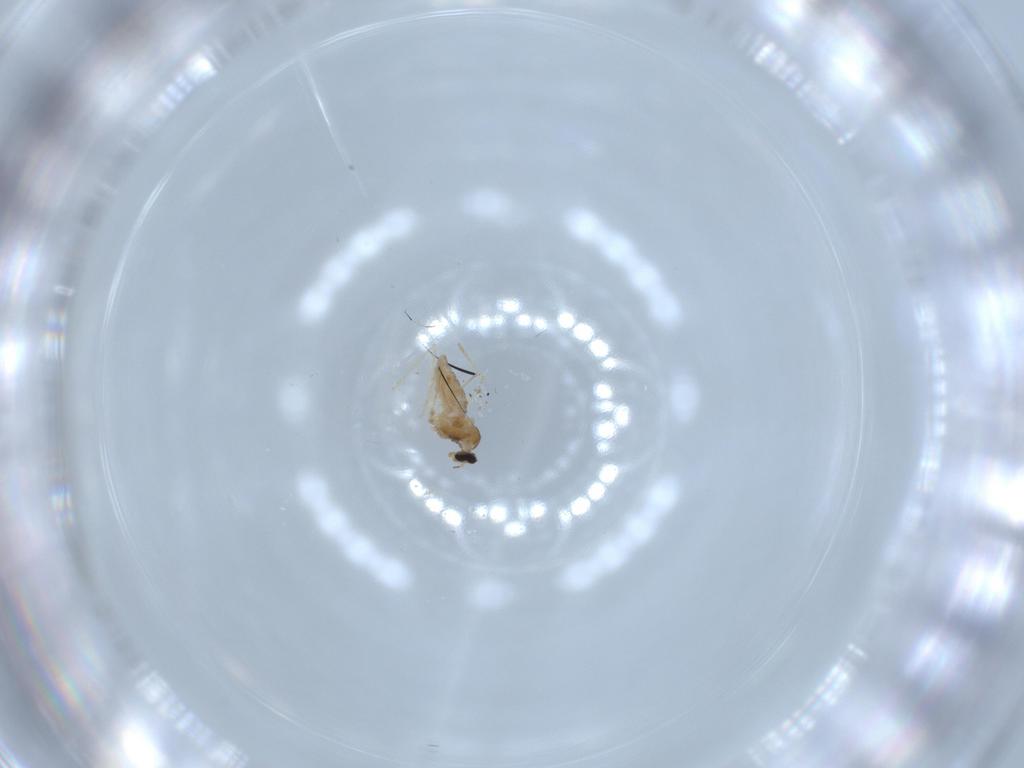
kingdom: Animalia
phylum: Arthropoda
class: Insecta
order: Diptera
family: Cecidomyiidae
